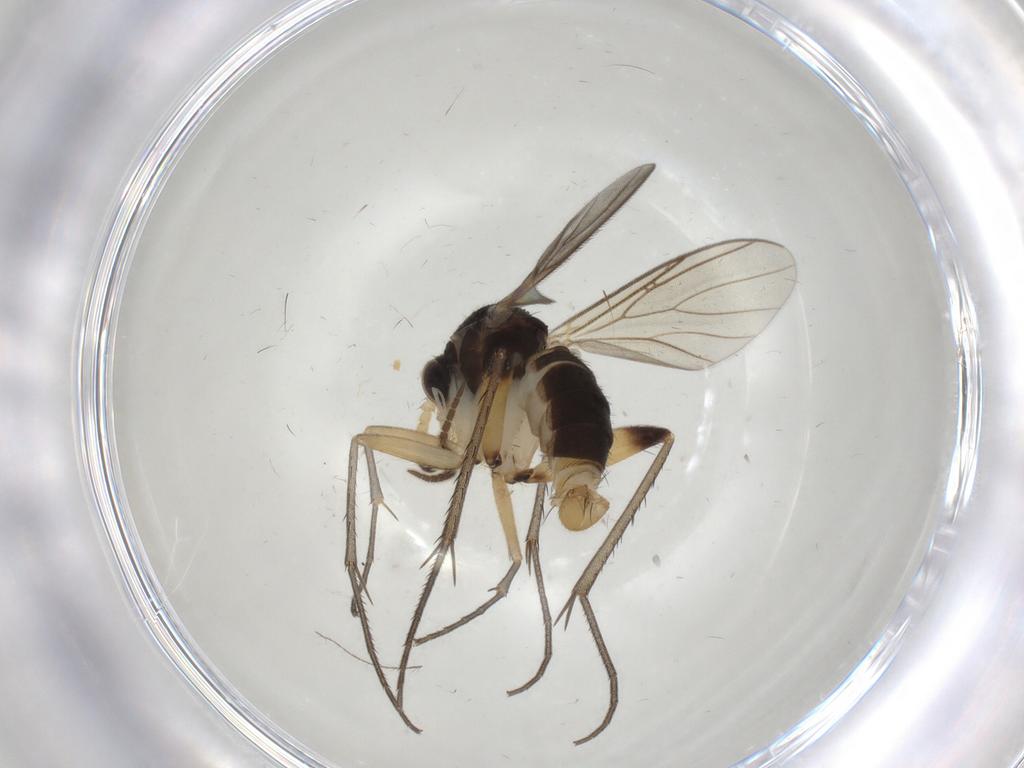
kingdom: Animalia
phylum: Arthropoda
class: Insecta
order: Diptera
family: Mycetophilidae
